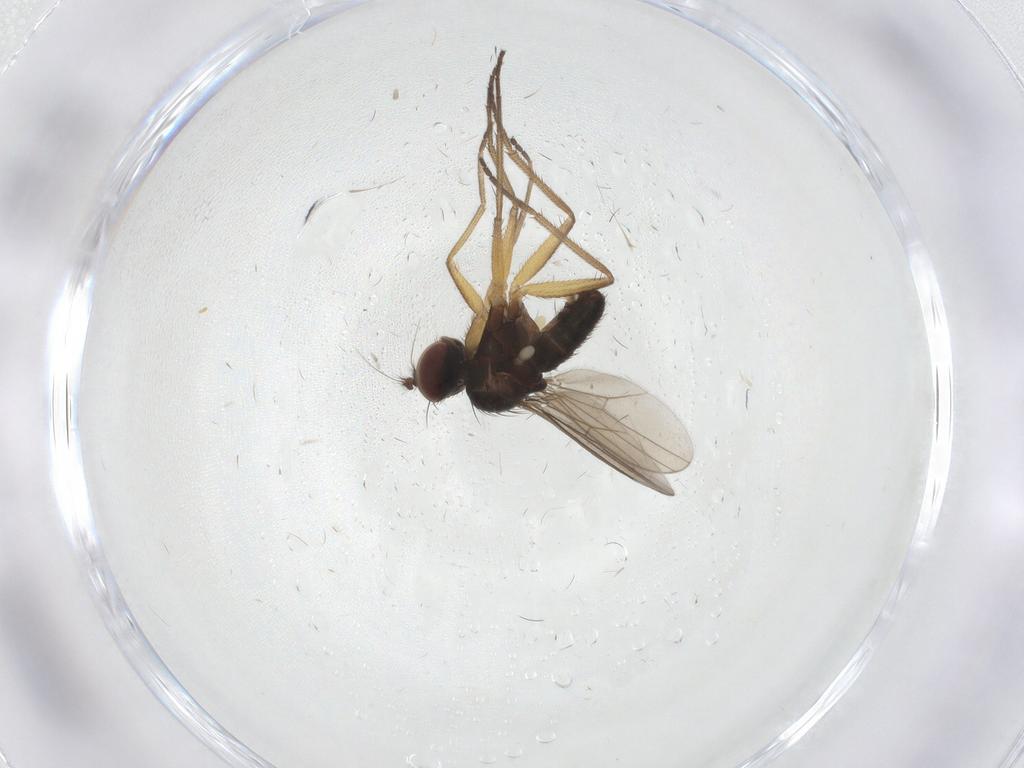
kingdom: Animalia
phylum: Arthropoda
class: Insecta
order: Diptera
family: Dolichopodidae
